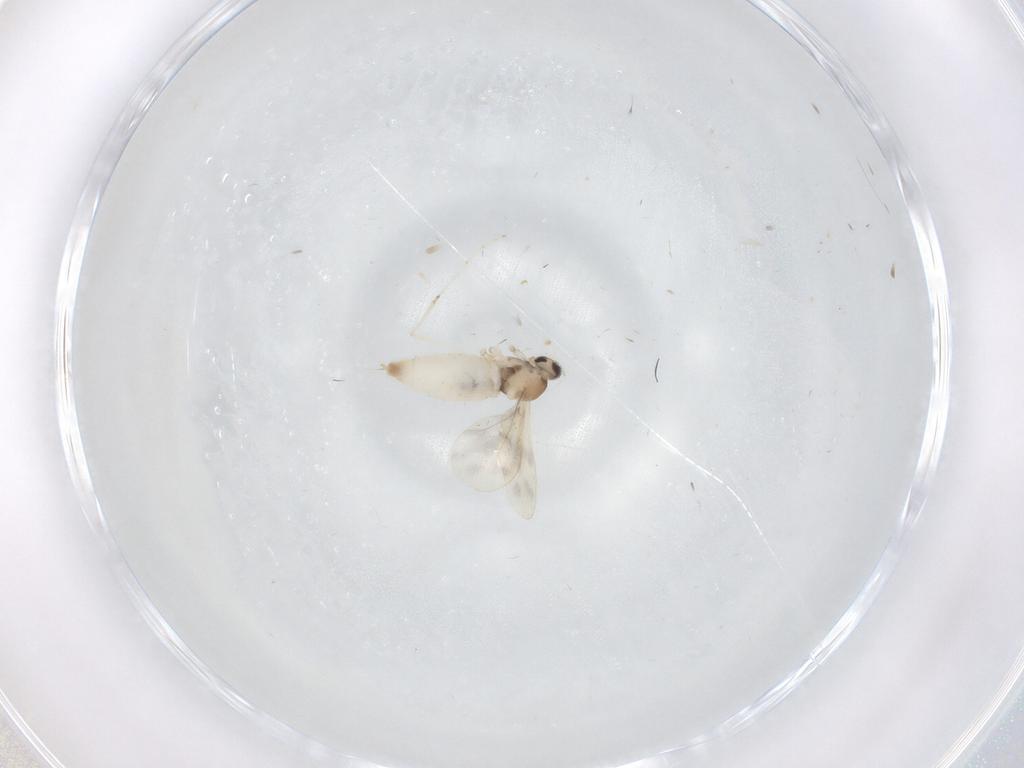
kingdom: Animalia
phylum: Arthropoda
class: Insecta
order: Diptera
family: Cecidomyiidae
